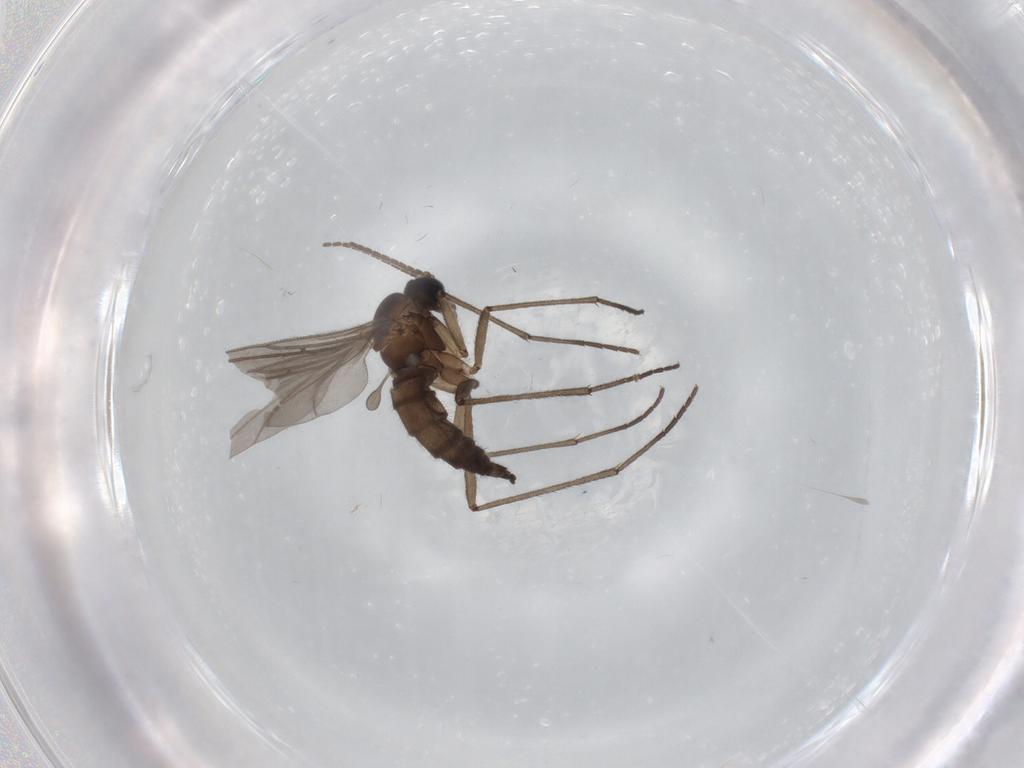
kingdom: Animalia
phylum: Arthropoda
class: Insecta
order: Diptera
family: Sciaridae
